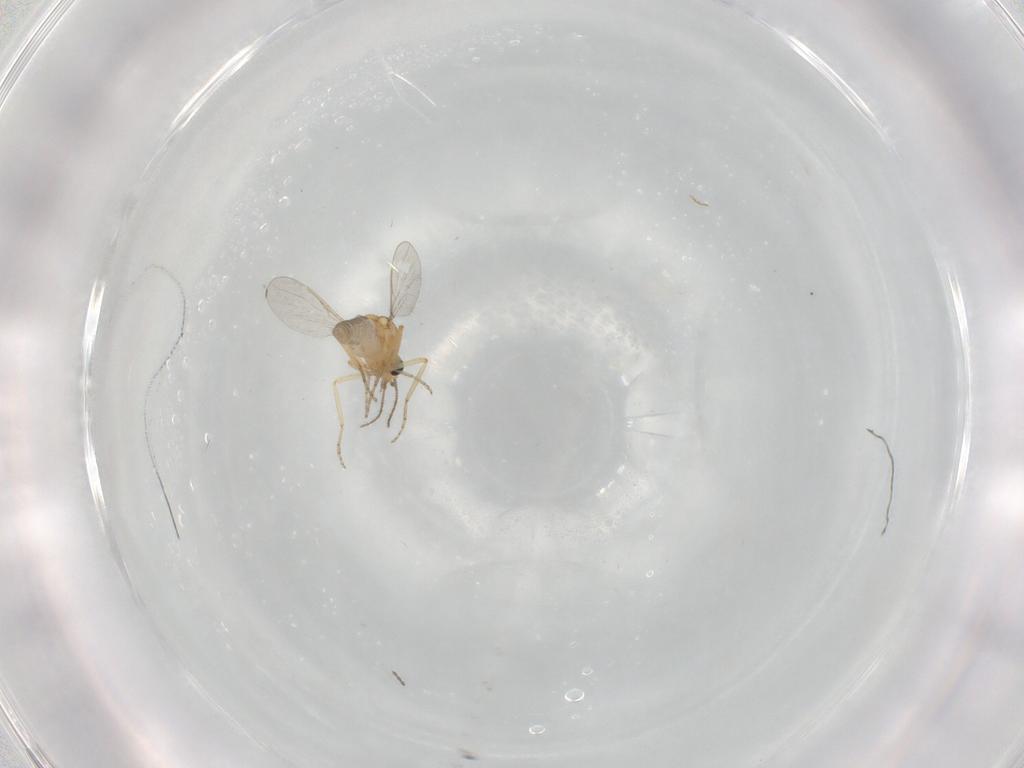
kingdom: Animalia
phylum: Arthropoda
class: Insecta
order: Diptera
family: Ceratopogonidae
